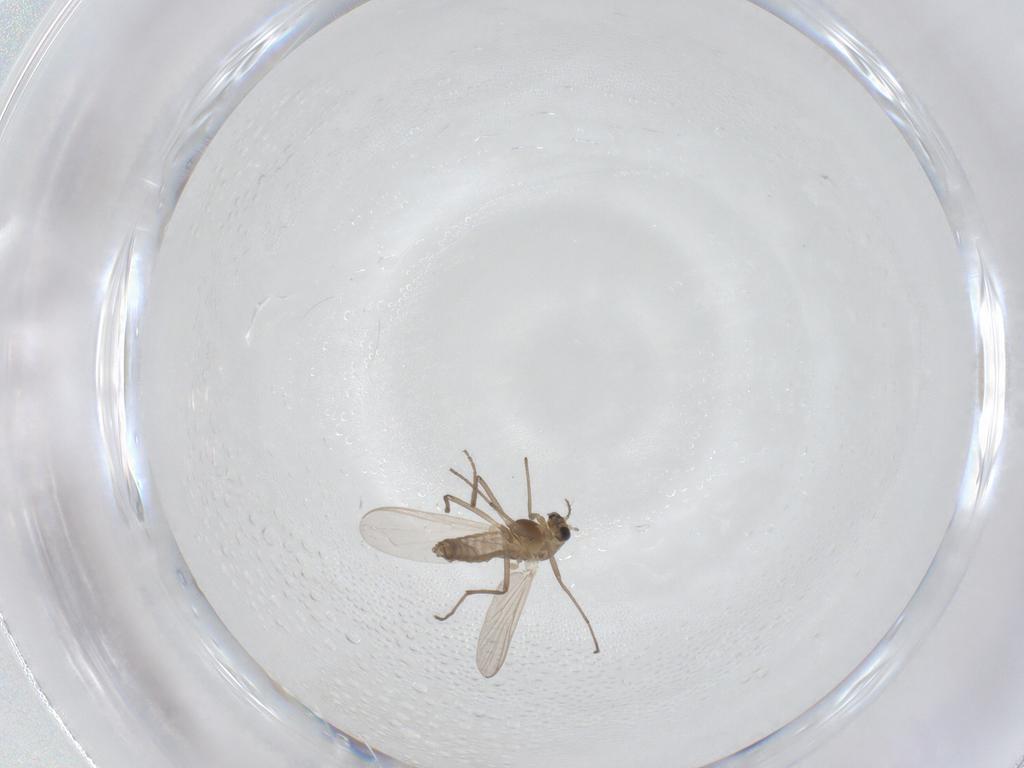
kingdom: Animalia
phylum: Arthropoda
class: Insecta
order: Diptera
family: Chironomidae
